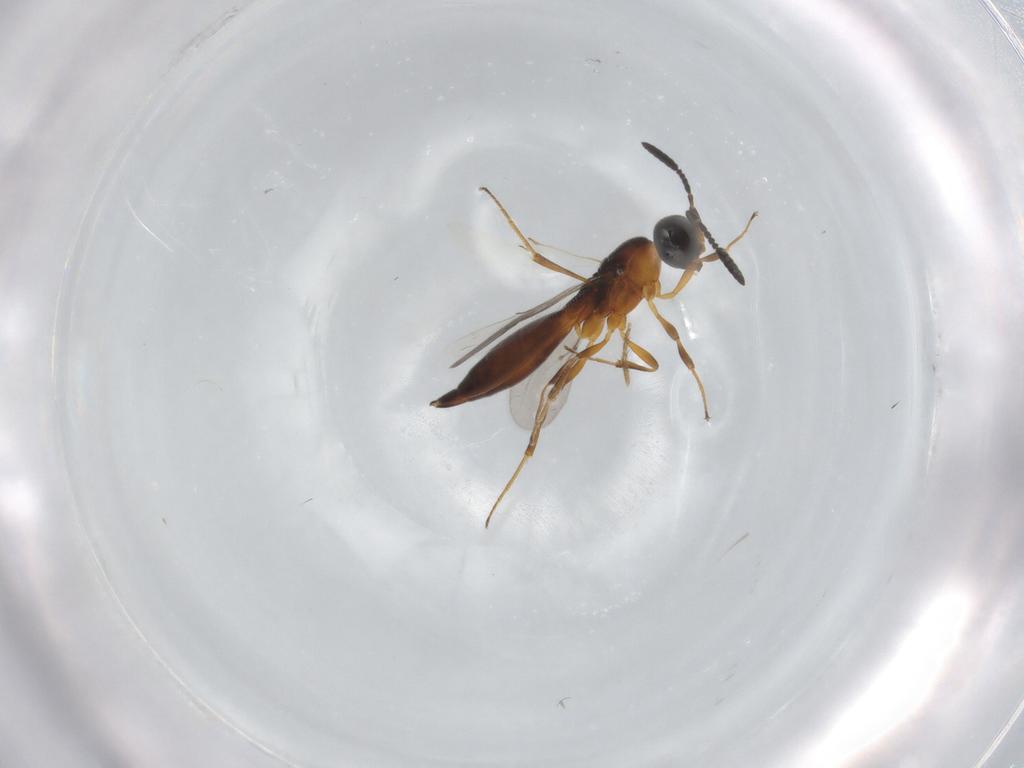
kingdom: Animalia
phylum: Arthropoda
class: Insecta
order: Hymenoptera
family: Scelionidae
